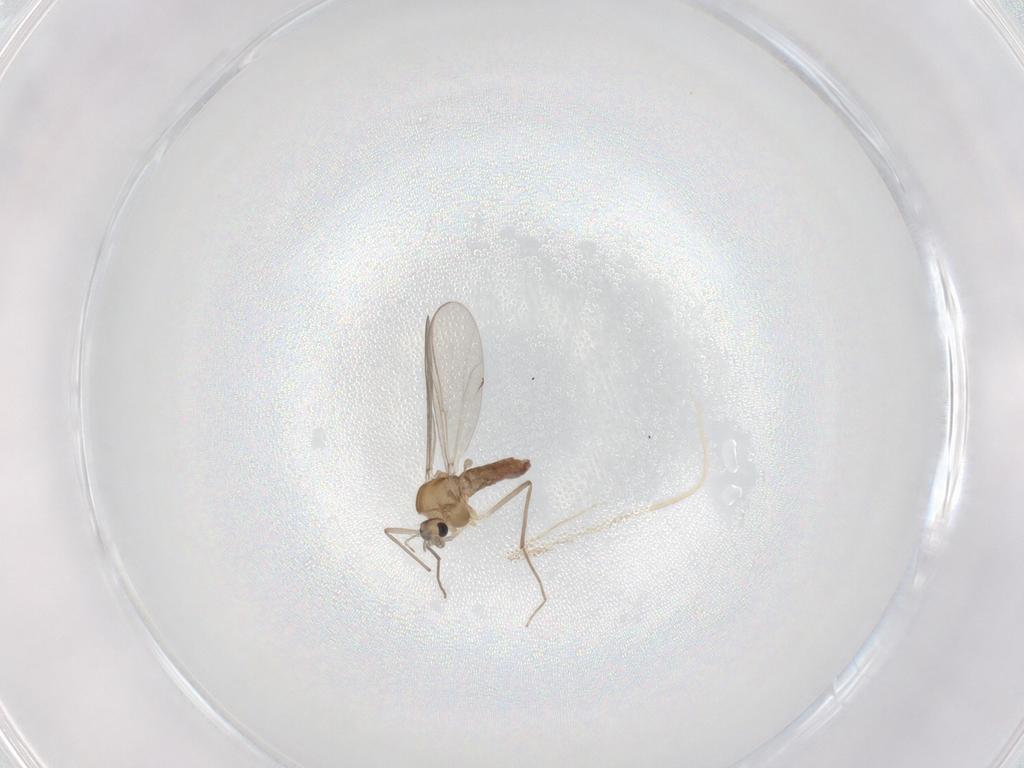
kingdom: Animalia
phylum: Arthropoda
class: Insecta
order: Diptera
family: Chironomidae
